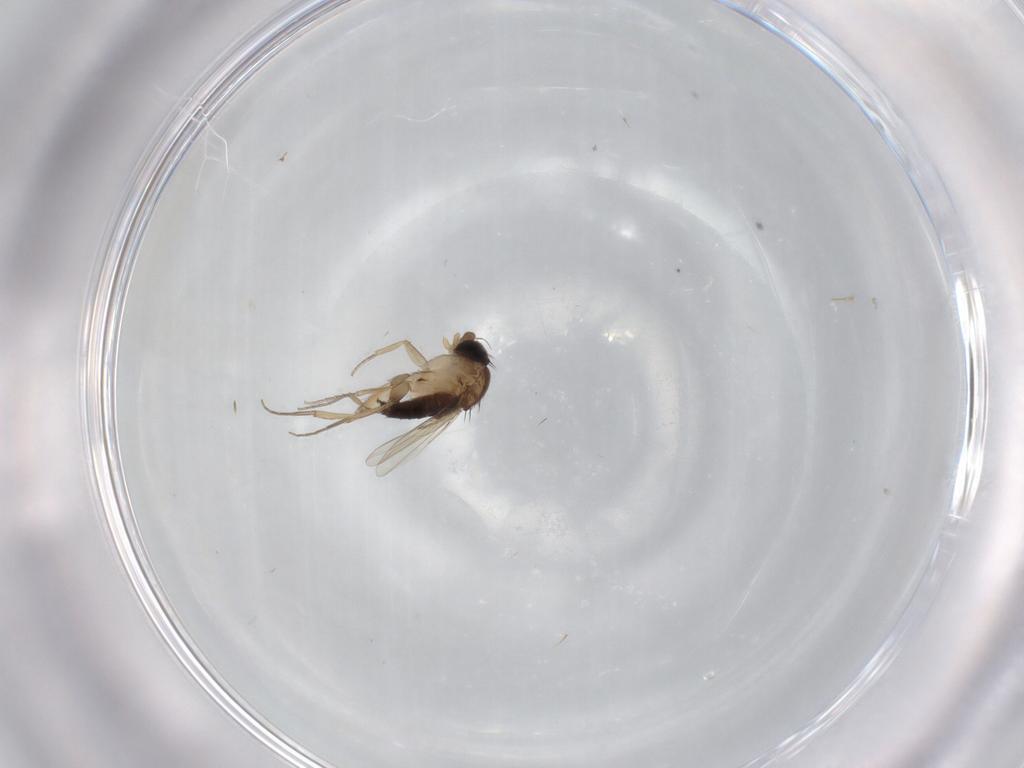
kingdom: Animalia
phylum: Arthropoda
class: Insecta
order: Diptera
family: Phoridae
